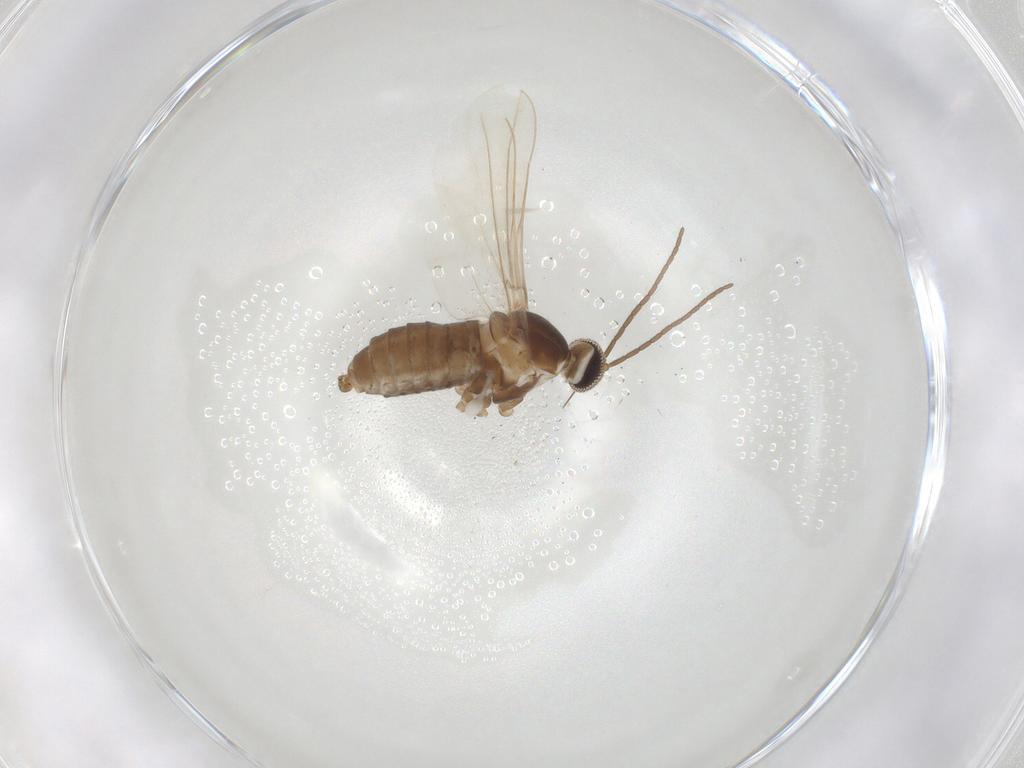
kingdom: Animalia
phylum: Arthropoda
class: Insecta
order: Diptera
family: Cecidomyiidae
